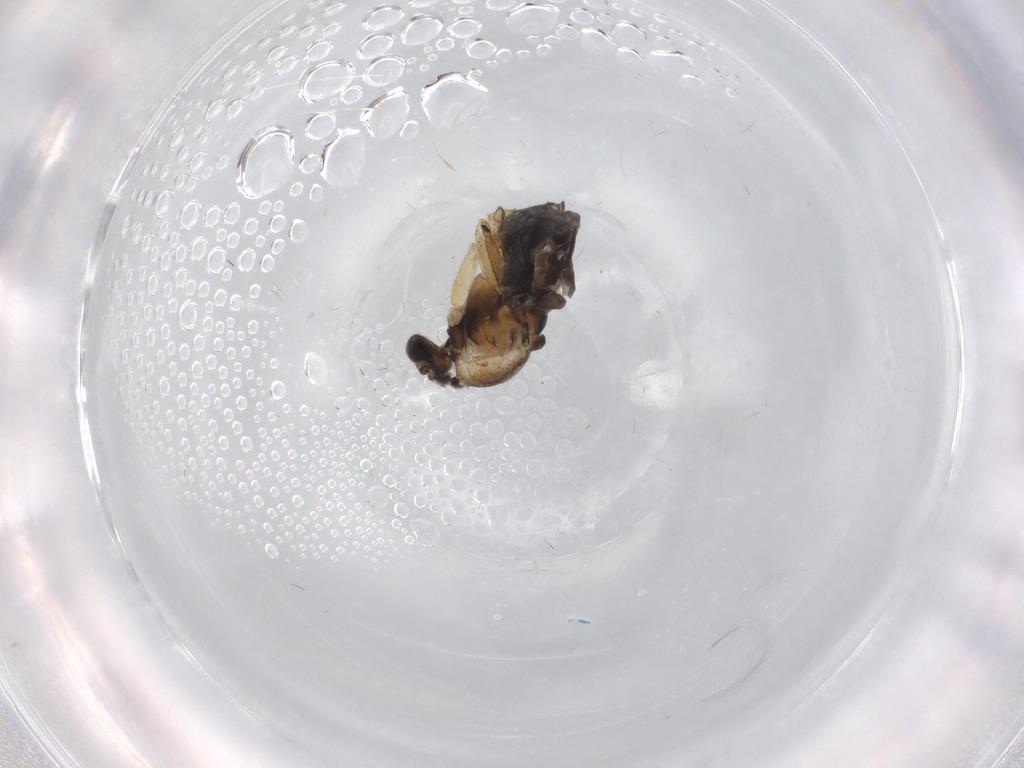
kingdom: Animalia
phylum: Arthropoda
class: Insecta
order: Diptera
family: Sciaridae
